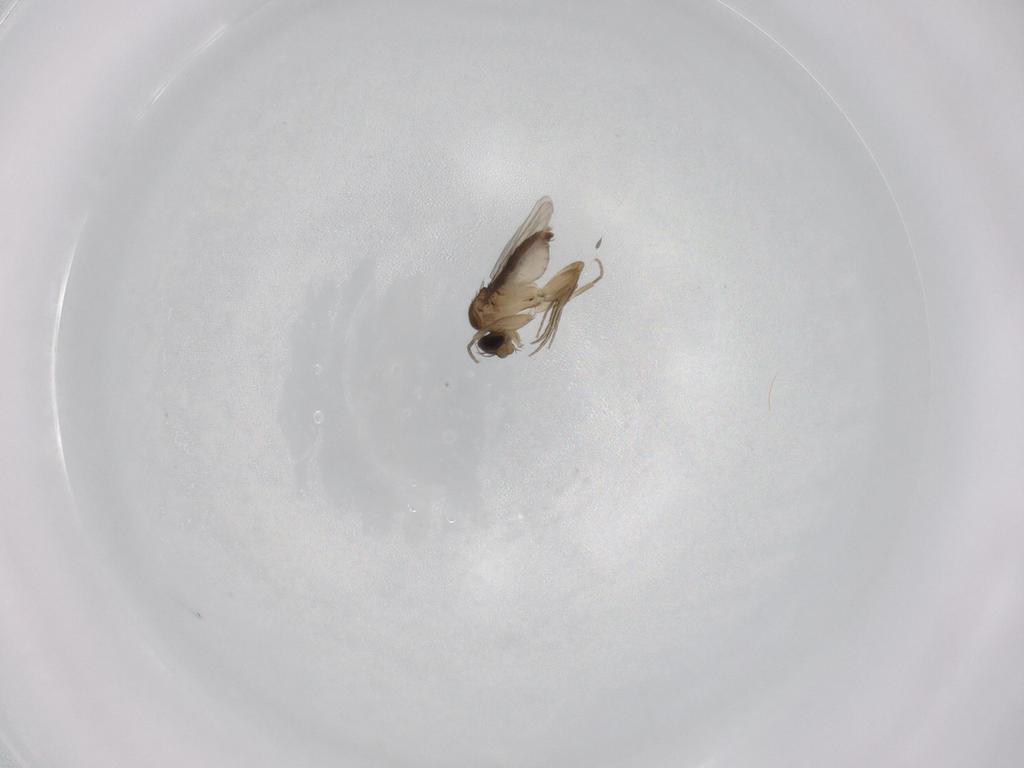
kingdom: Animalia
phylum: Arthropoda
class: Insecta
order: Diptera
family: Phoridae
